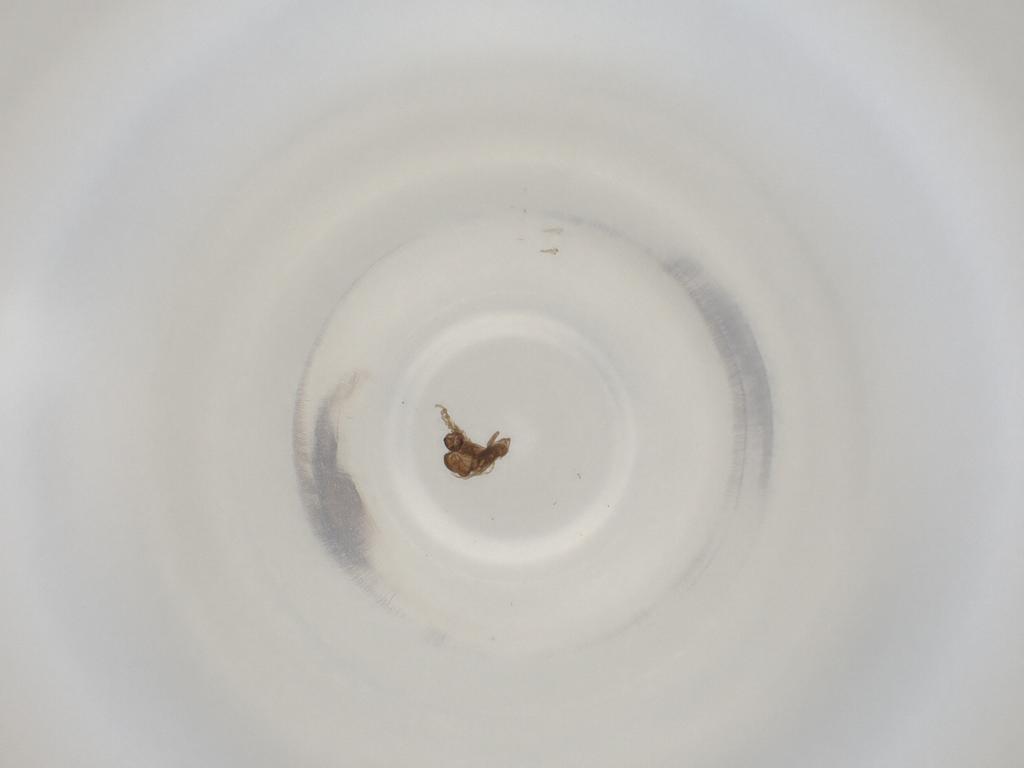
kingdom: Animalia
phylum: Arthropoda
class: Insecta
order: Diptera
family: Cecidomyiidae
